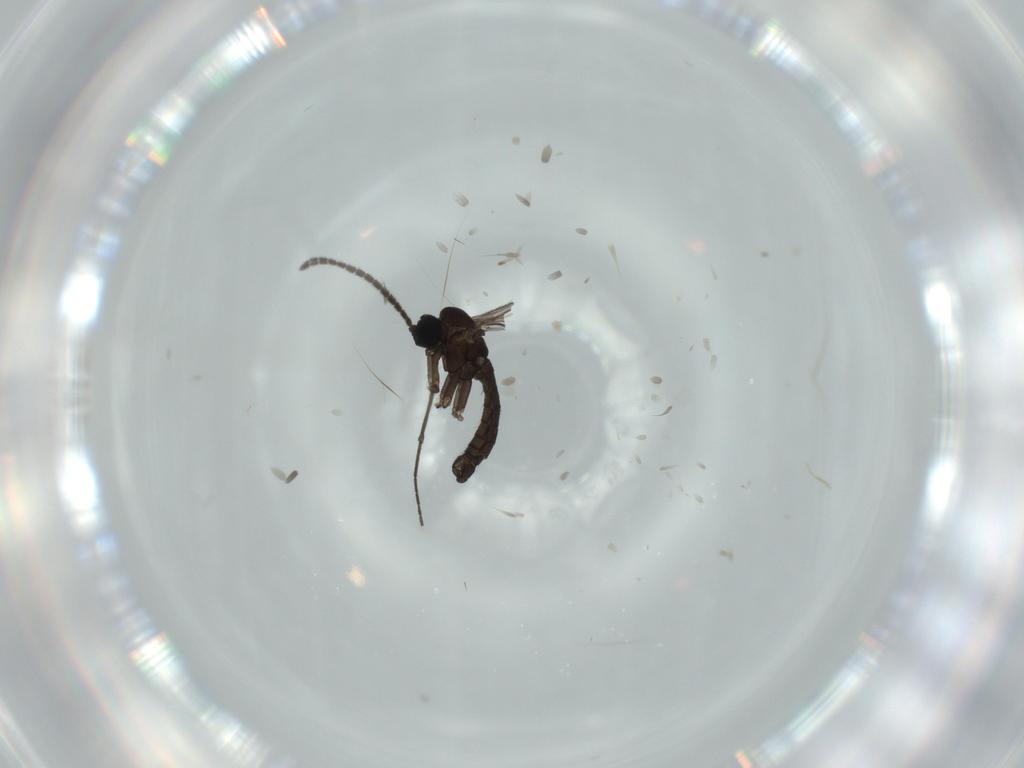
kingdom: Animalia
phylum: Arthropoda
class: Insecta
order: Diptera
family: Sciaridae
